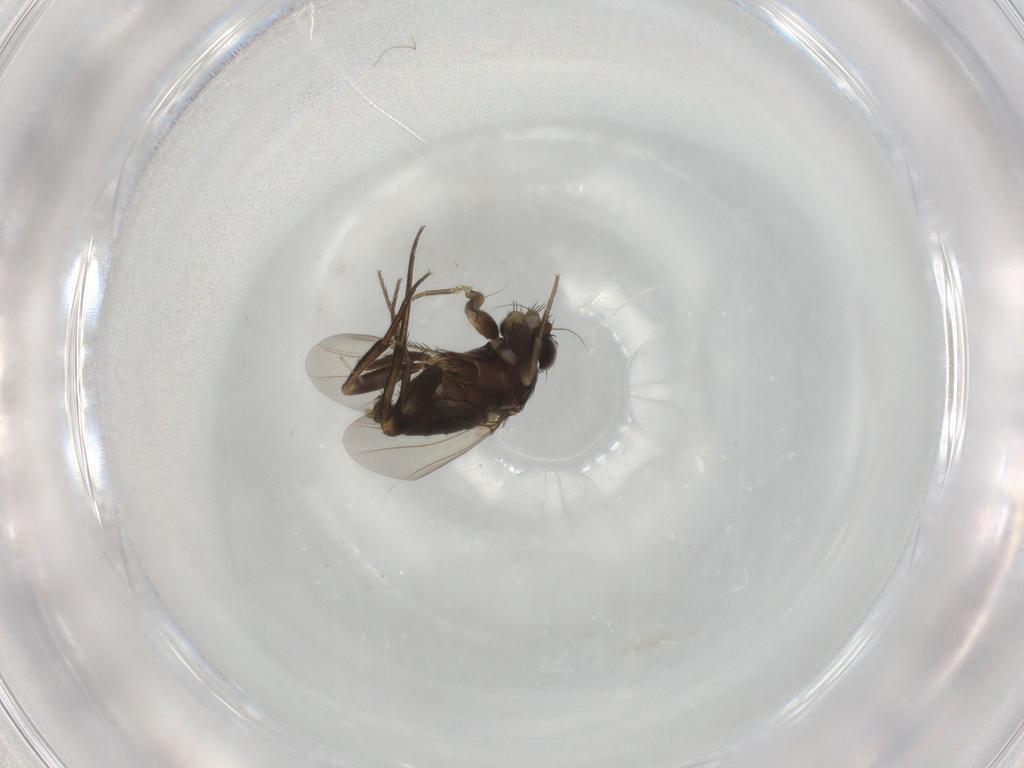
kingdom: Animalia
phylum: Arthropoda
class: Insecta
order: Diptera
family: Phoridae
